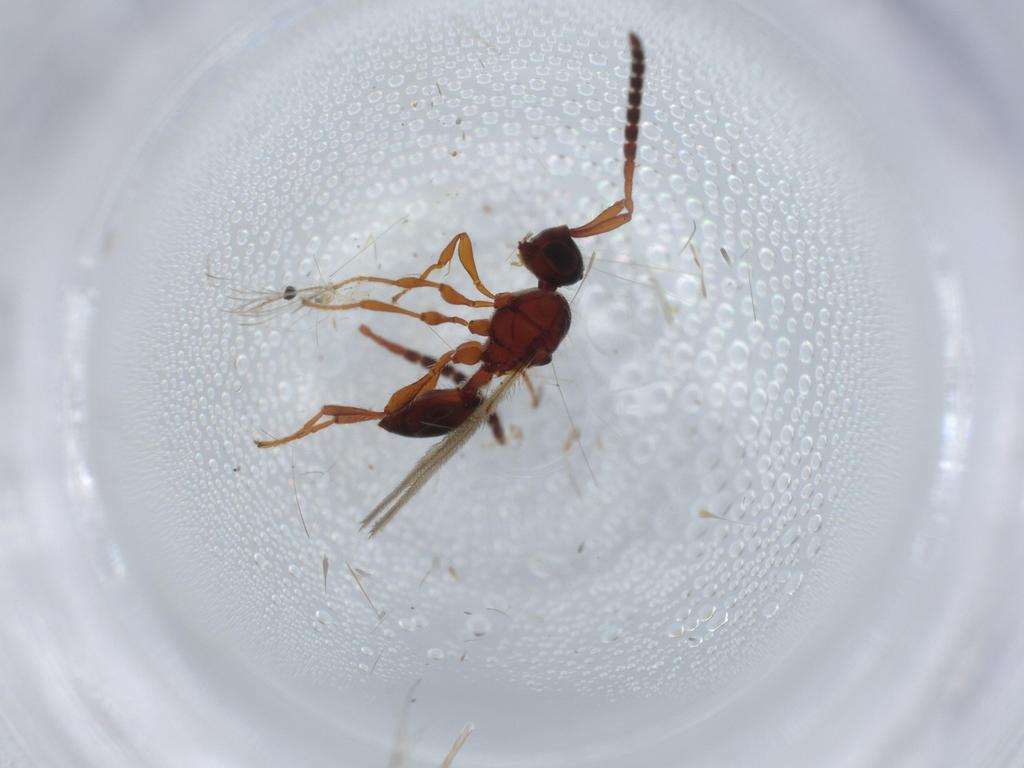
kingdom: Animalia
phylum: Arthropoda
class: Insecta
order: Hymenoptera
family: Diapriidae
